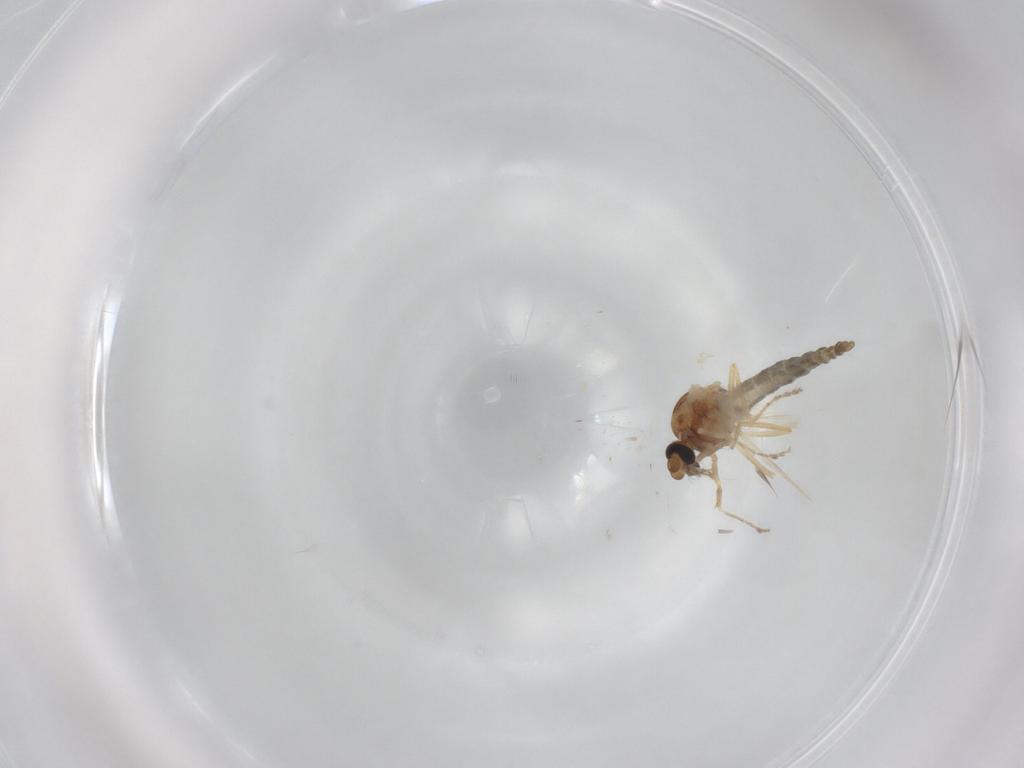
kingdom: Animalia
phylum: Arthropoda
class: Insecta
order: Diptera
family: Ceratopogonidae
